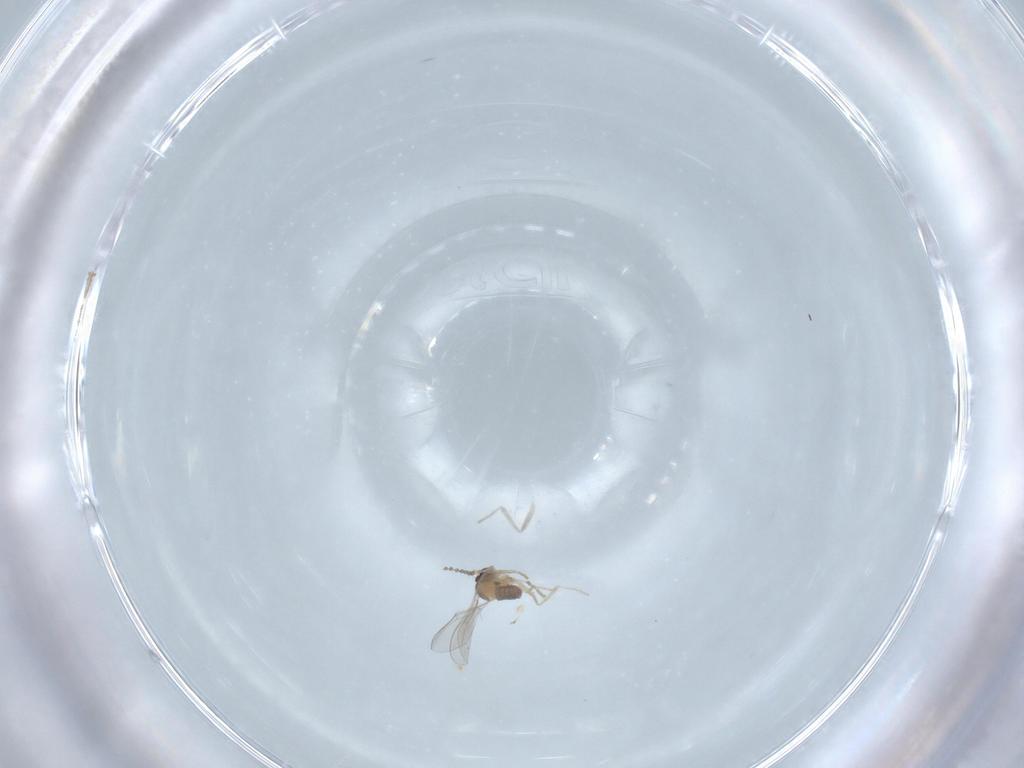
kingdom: Animalia
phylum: Arthropoda
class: Insecta
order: Diptera
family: Cecidomyiidae
